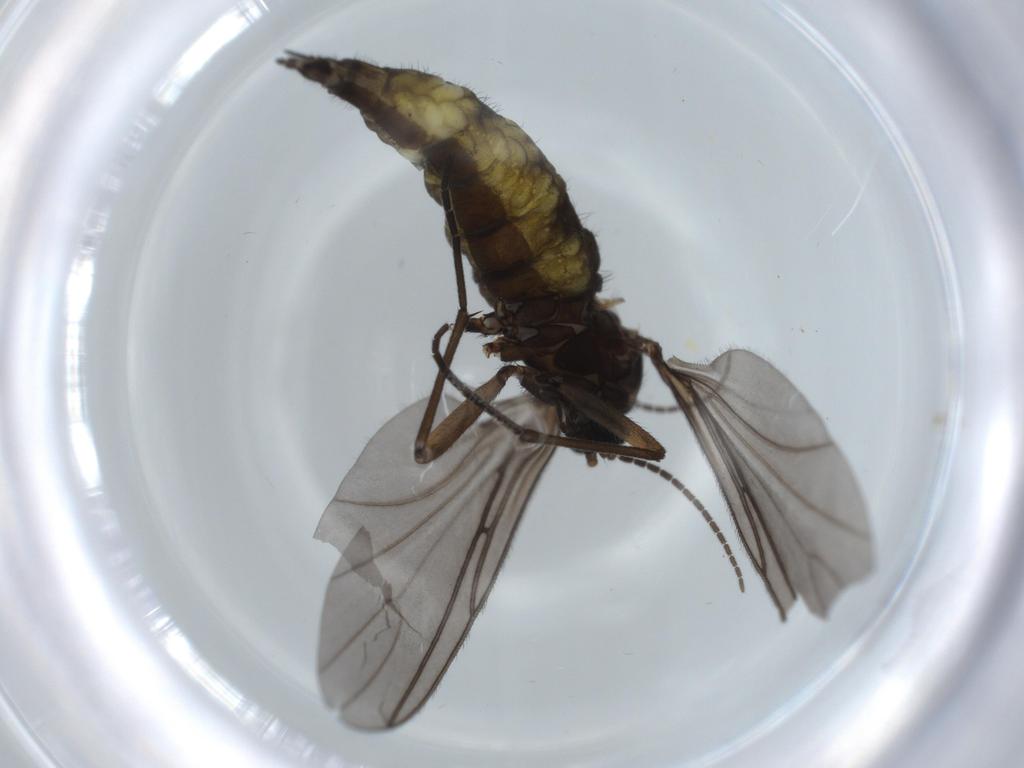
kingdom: Animalia
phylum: Arthropoda
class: Insecta
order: Diptera
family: Sciaridae
